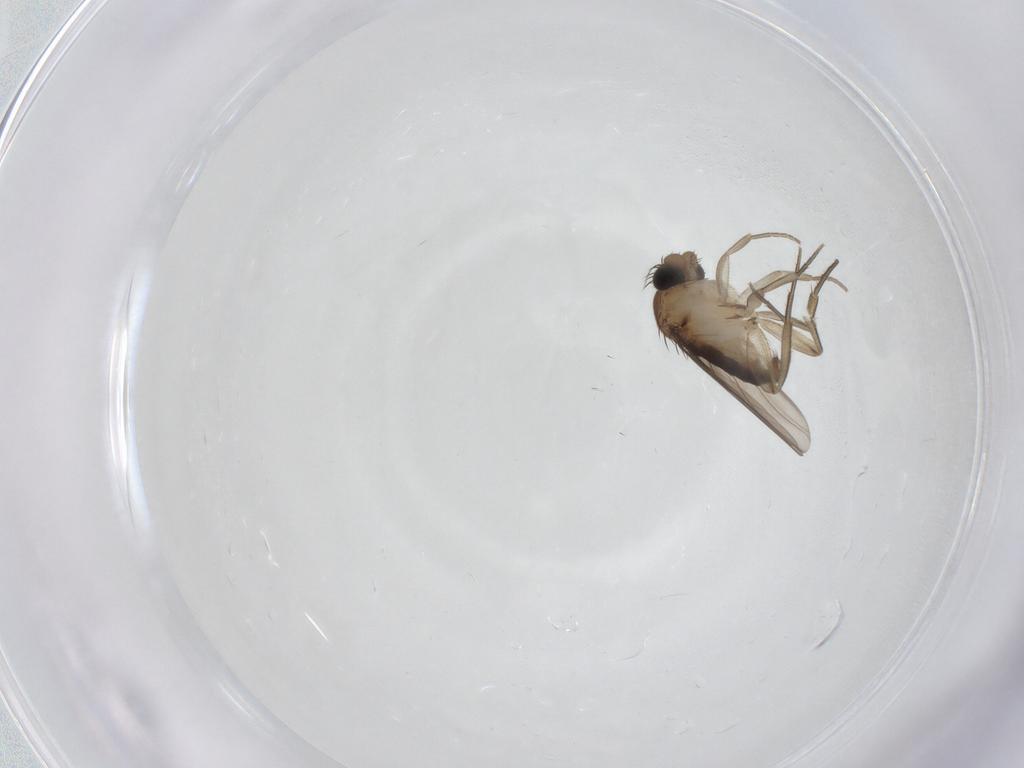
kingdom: Animalia
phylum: Arthropoda
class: Insecta
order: Diptera
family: Phoridae
